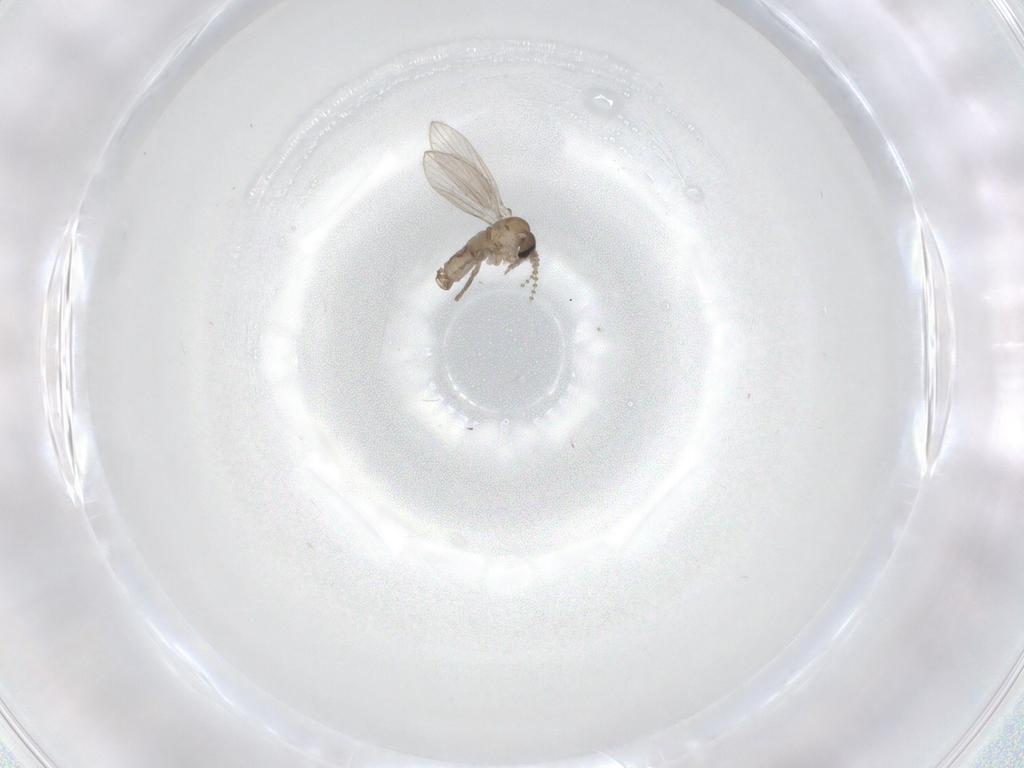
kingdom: Animalia
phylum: Arthropoda
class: Insecta
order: Diptera
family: Psychodidae
